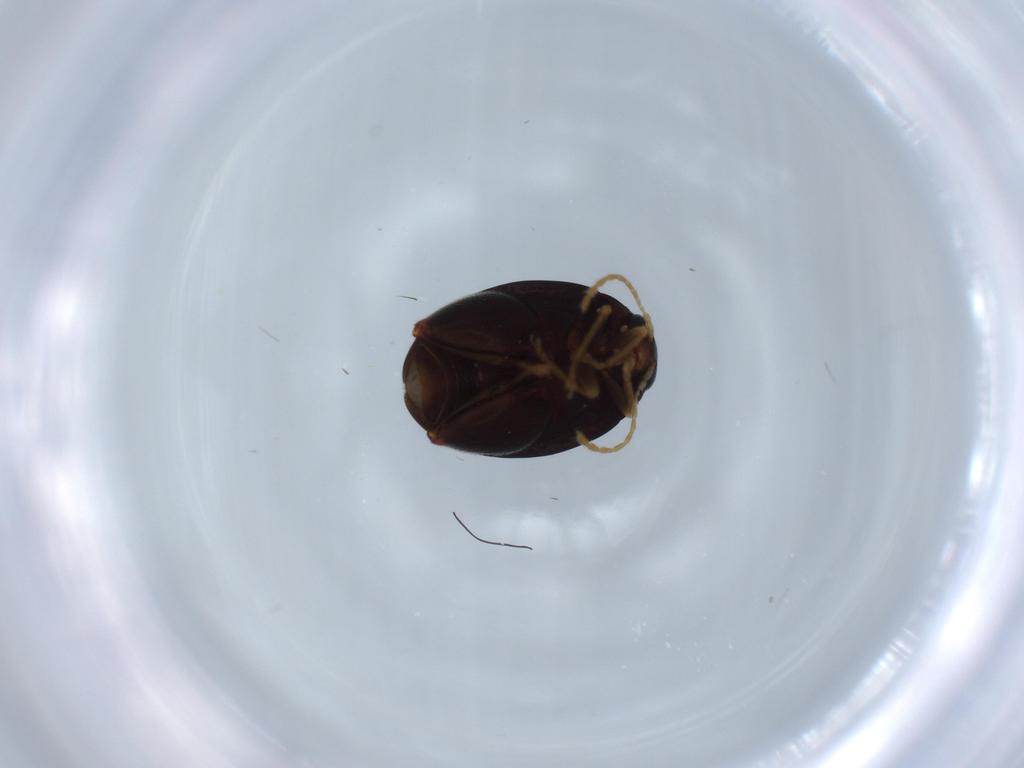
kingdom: Animalia
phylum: Arthropoda
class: Insecta
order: Coleoptera
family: Chrysomelidae
